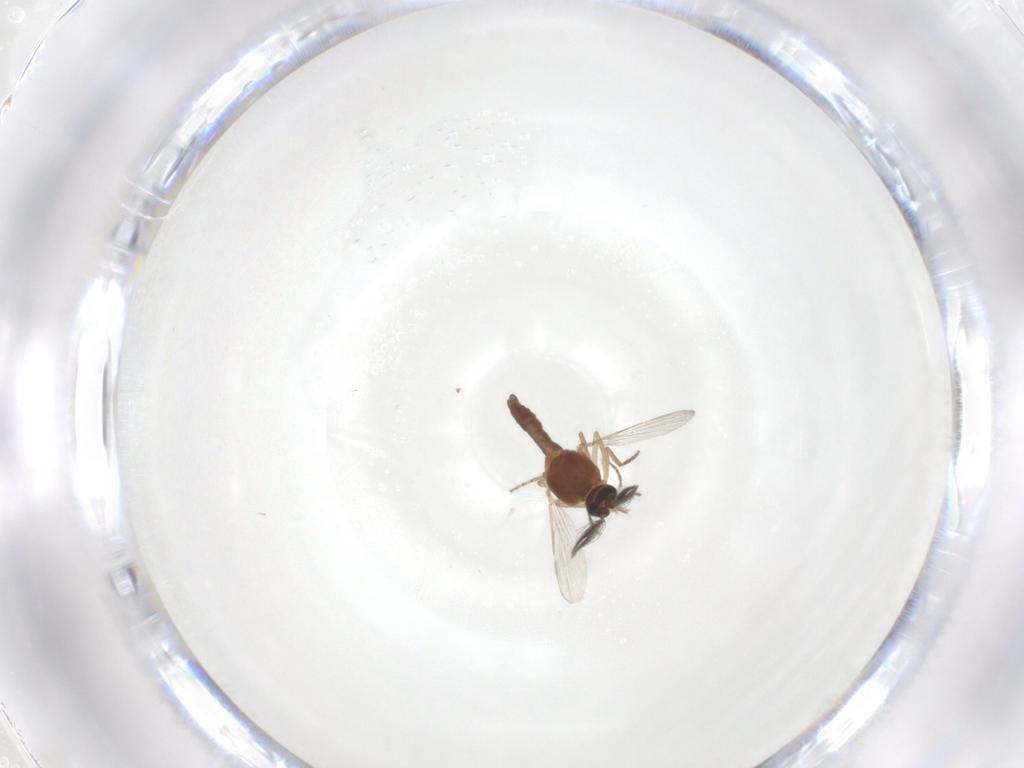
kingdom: Animalia
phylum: Arthropoda
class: Insecta
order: Diptera
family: Ceratopogonidae
